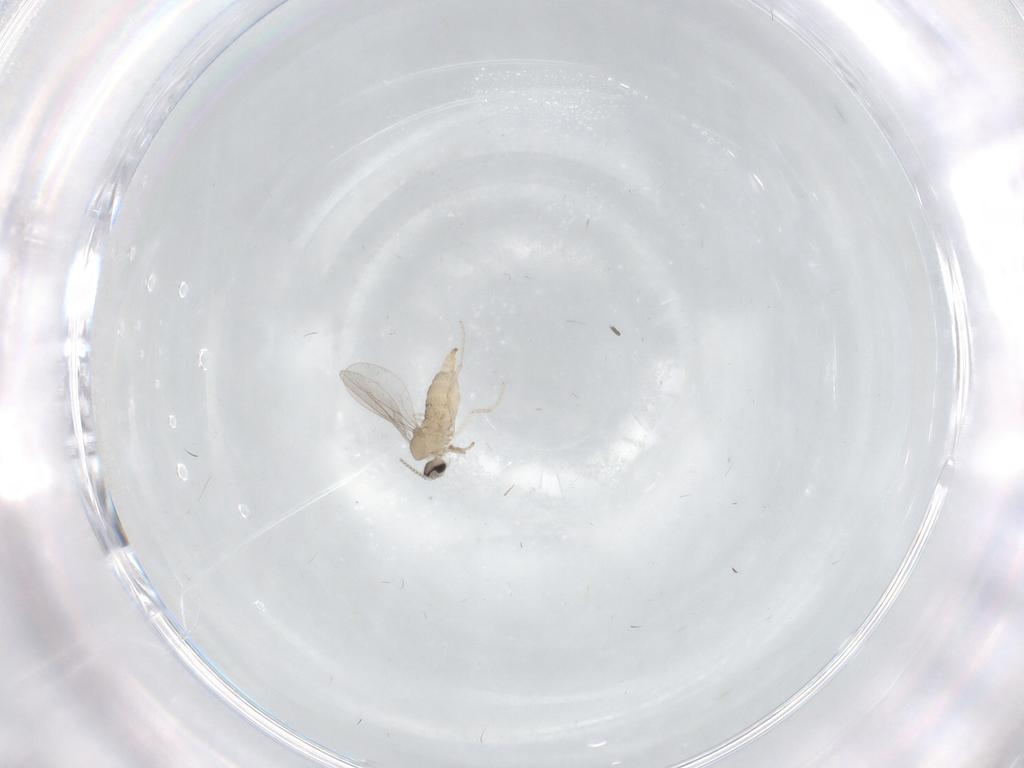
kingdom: Animalia
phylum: Arthropoda
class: Insecta
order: Diptera
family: Cecidomyiidae
